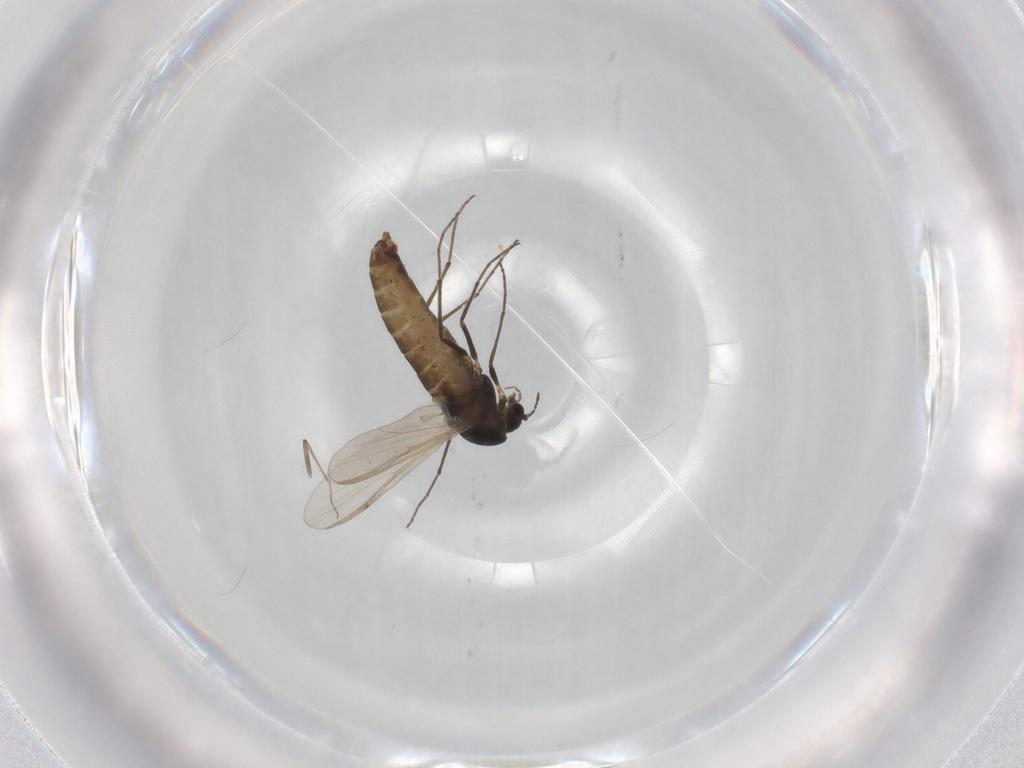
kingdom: Animalia
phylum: Arthropoda
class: Insecta
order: Diptera
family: Chironomidae
